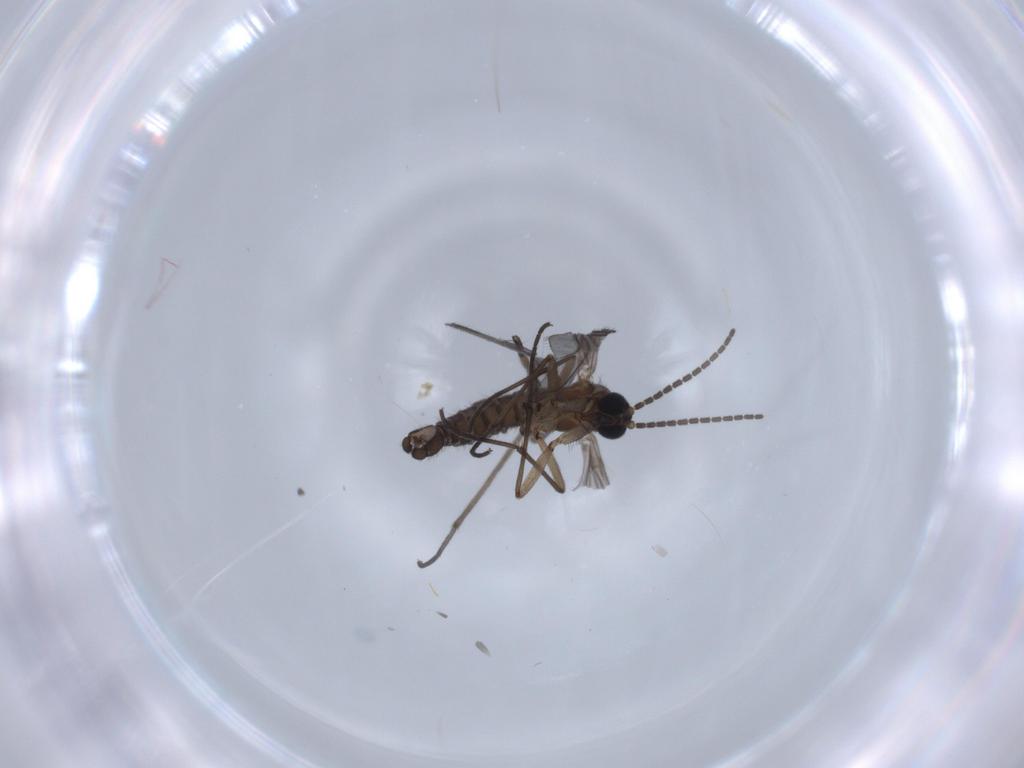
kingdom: Animalia
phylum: Arthropoda
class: Insecta
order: Diptera
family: Sciaridae
